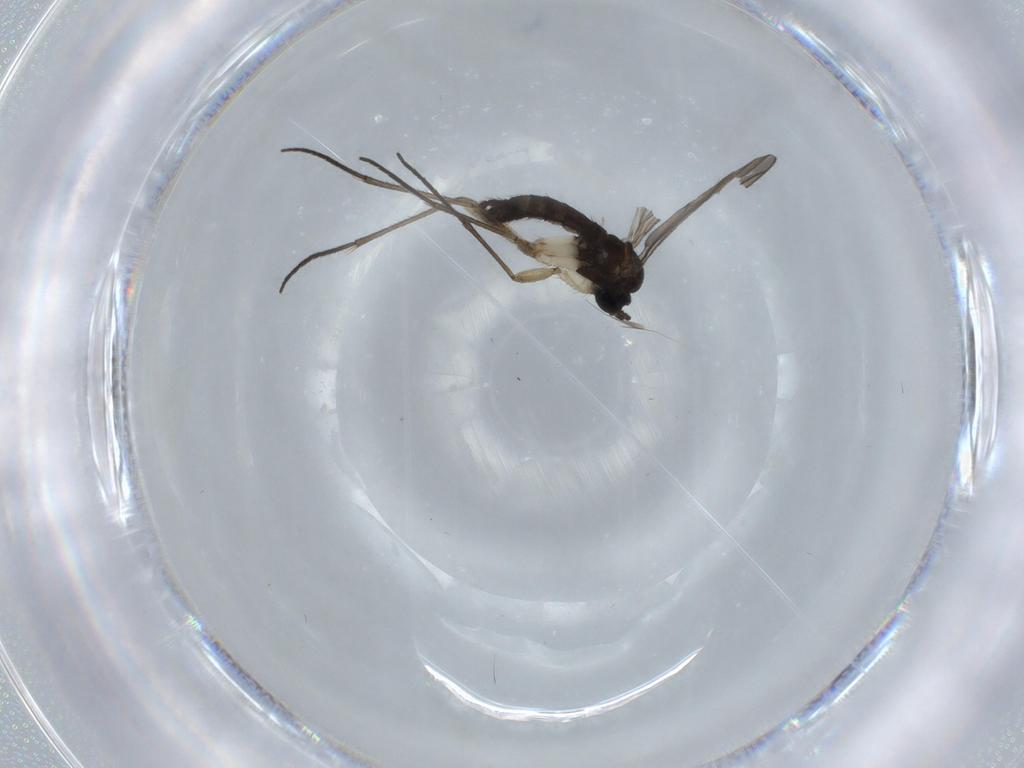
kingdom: Animalia
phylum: Arthropoda
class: Insecta
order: Diptera
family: Sciaridae
